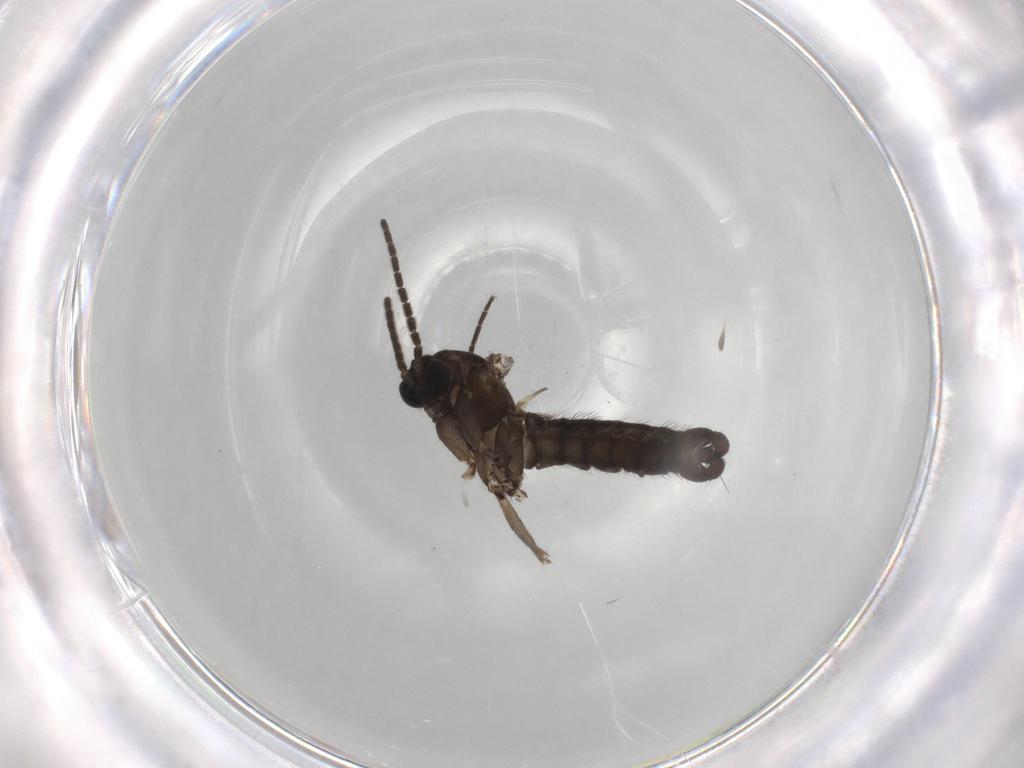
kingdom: Animalia
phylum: Arthropoda
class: Insecta
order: Diptera
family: Sciaridae
